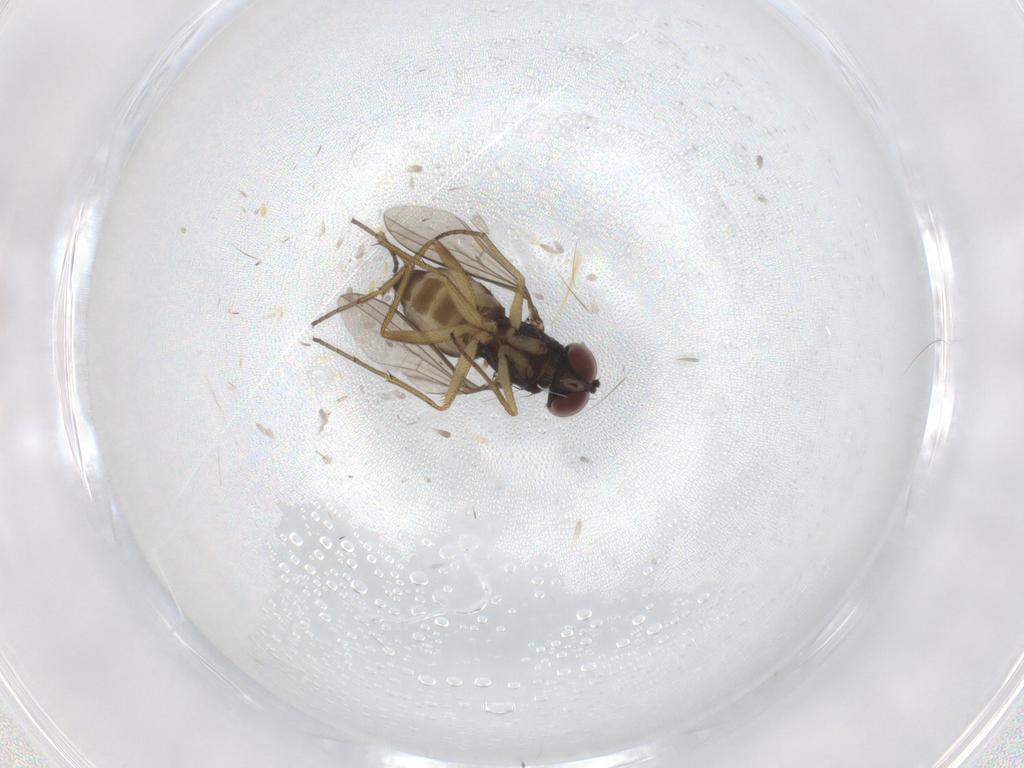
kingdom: Animalia
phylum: Arthropoda
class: Insecta
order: Diptera
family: Dolichopodidae
